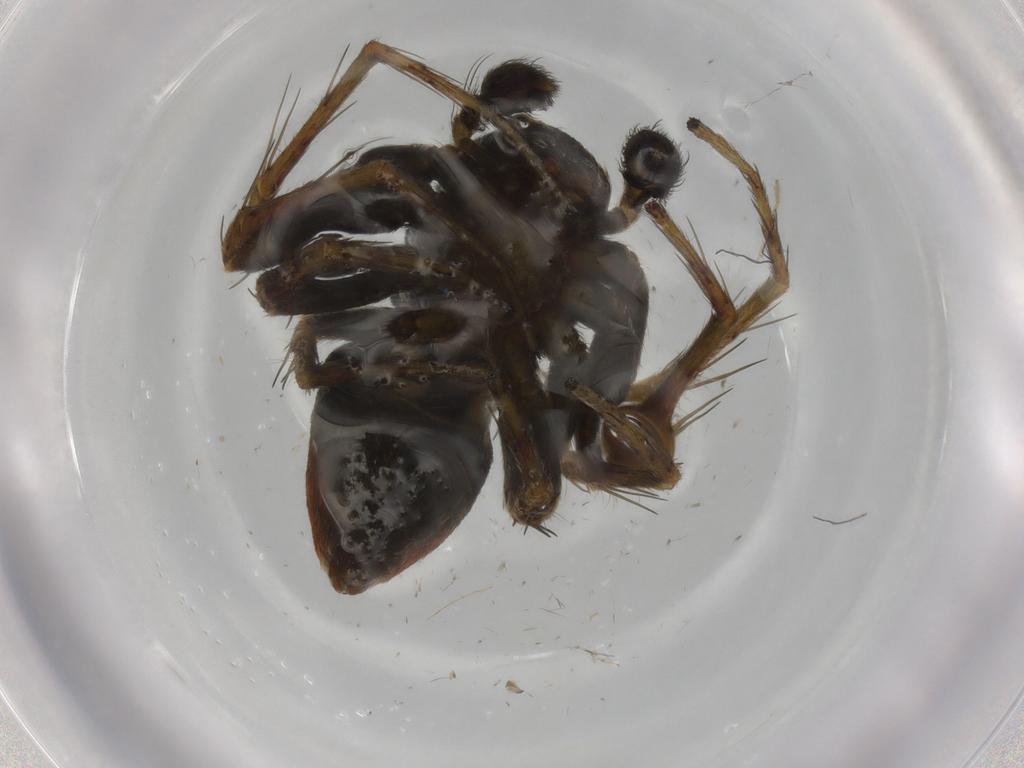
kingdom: Animalia
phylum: Arthropoda
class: Arachnida
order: Araneae
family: Oxyopidae
